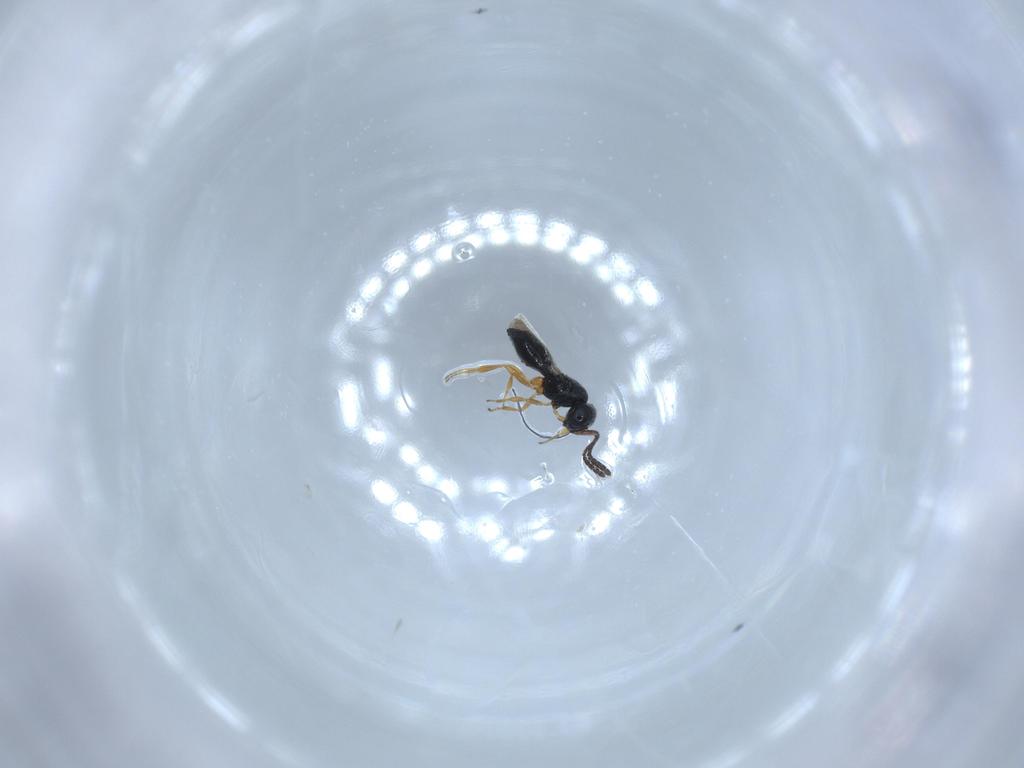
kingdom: Animalia
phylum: Arthropoda
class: Insecta
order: Hymenoptera
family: Scelionidae
